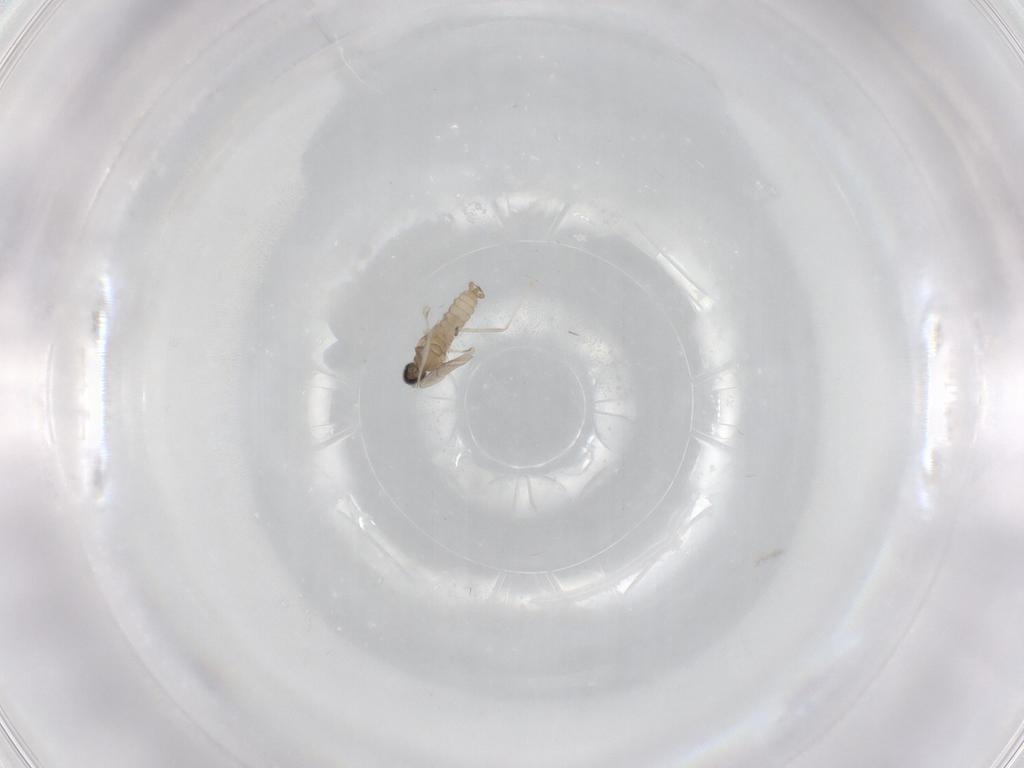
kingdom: Animalia
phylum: Arthropoda
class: Insecta
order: Diptera
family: Cecidomyiidae
